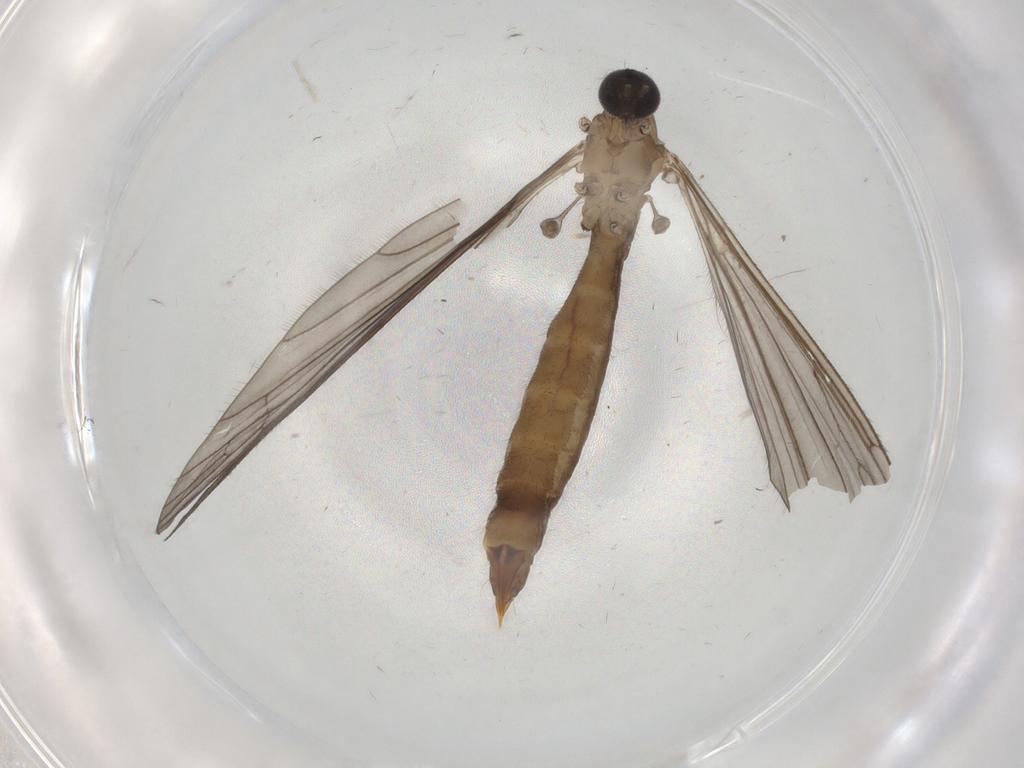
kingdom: Animalia
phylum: Arthropoda
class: Insecta
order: Diptera
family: Limoniidae
